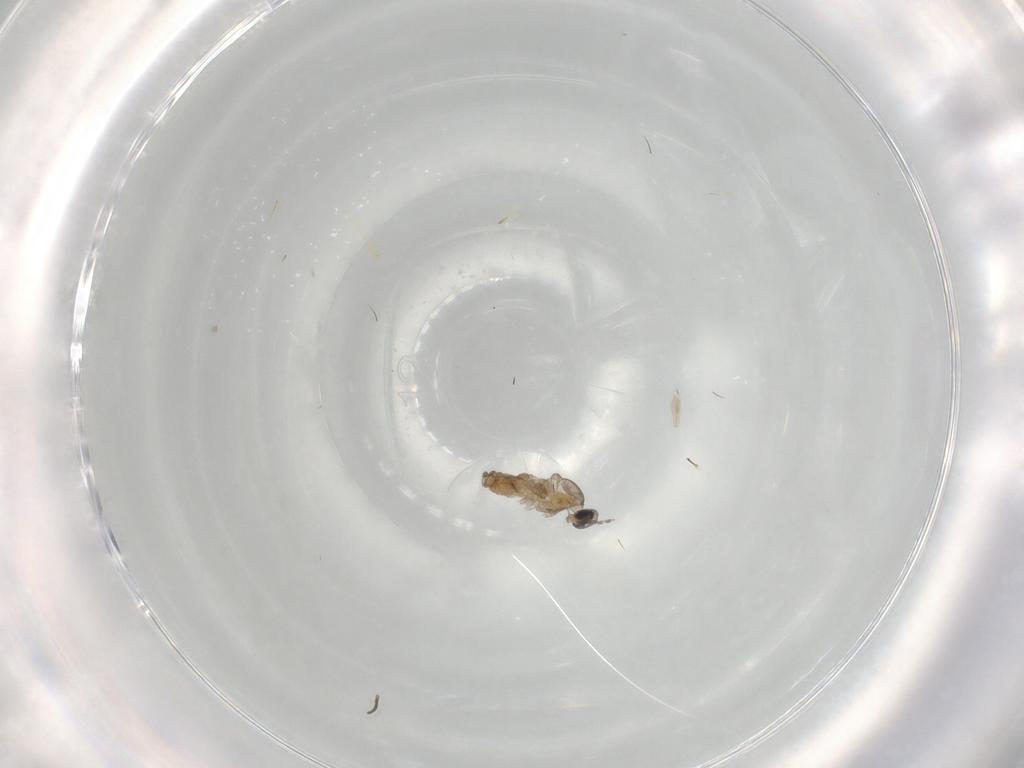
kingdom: Animalia
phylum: Arthropoda
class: Insecta
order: Diptera
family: Cecidomyiidae
